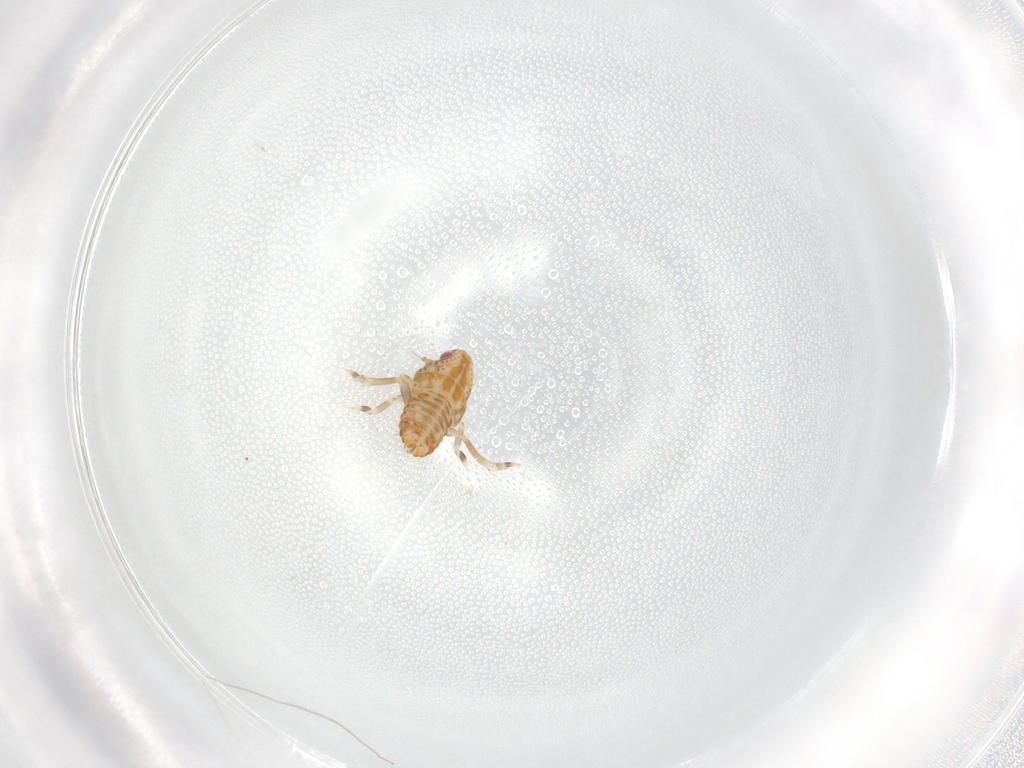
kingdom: Animalia
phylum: Arthropoda
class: Insecta
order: Hemiptera
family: Flatidae
